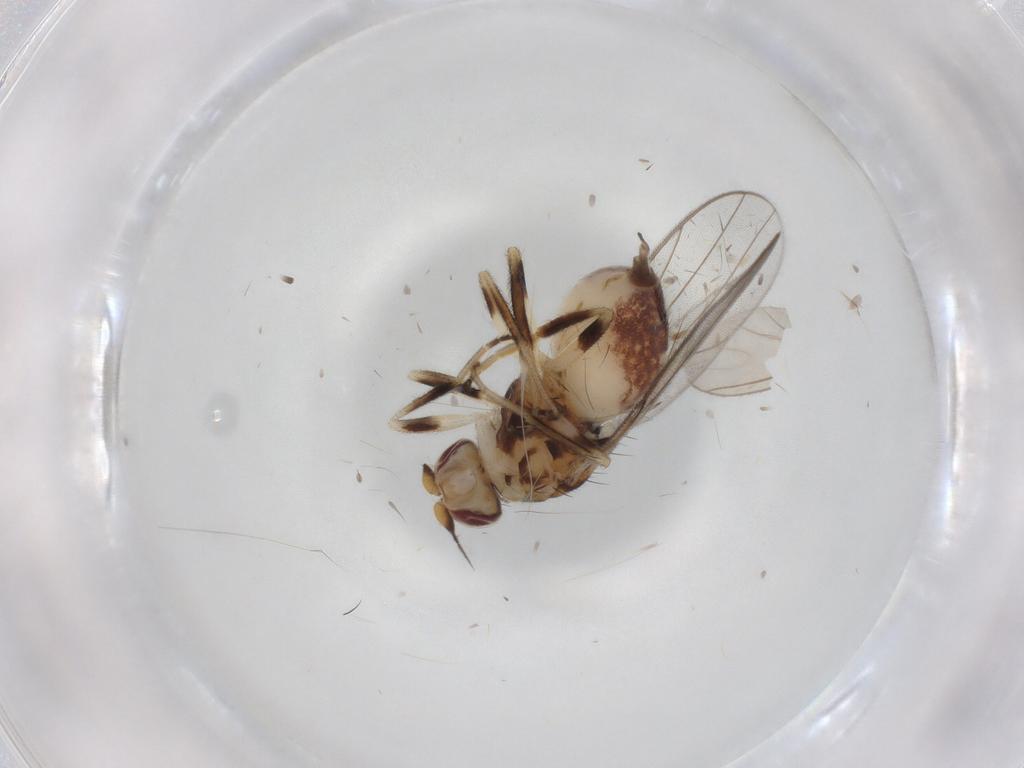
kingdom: Animalia
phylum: Arthropoda
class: Insecta
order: Diptera
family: Chloropidae
